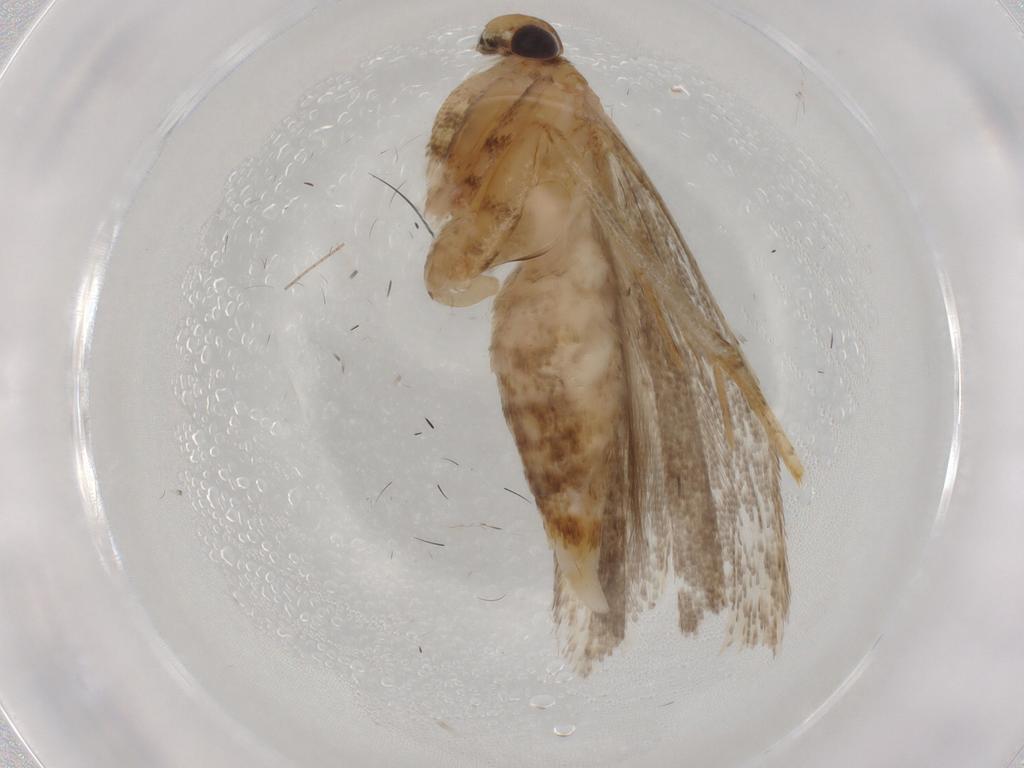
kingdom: Animalia
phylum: Arthropoda
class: Insecta
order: Lepidoptera
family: Gelechiidae
